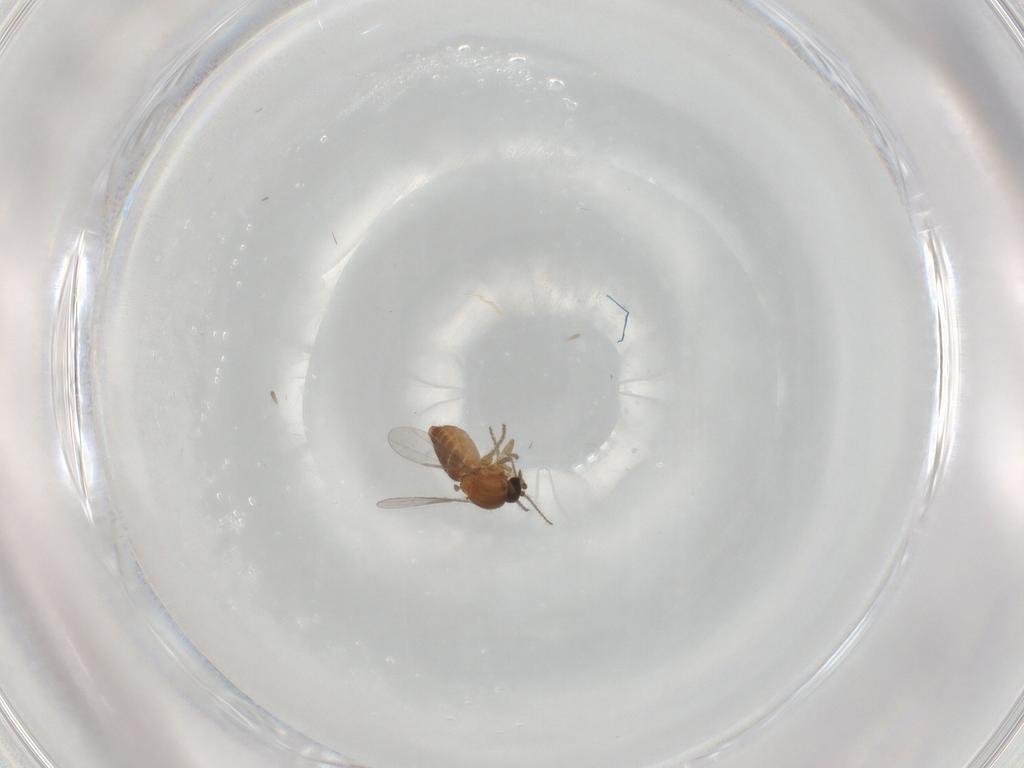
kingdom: Animalia
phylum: Arthropoda
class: Insecta
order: Diptera
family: Ceratopogonidae
